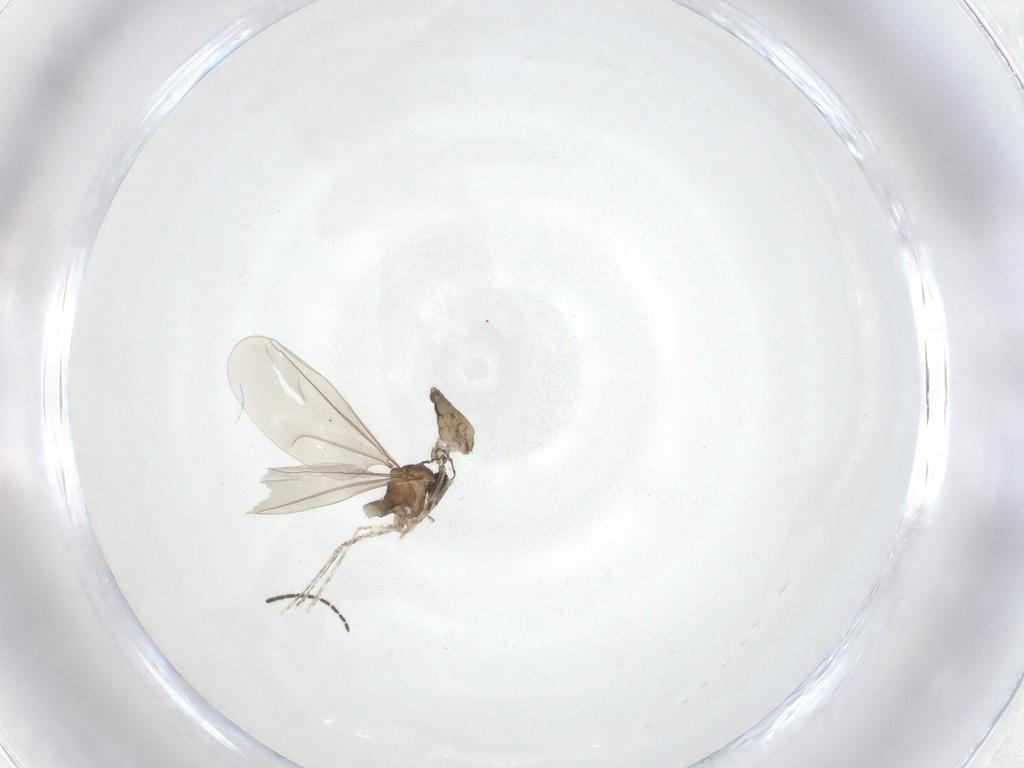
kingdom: Animalia
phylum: Arthropoda
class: Insecta
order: Diptera
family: Cecidomyiidae
